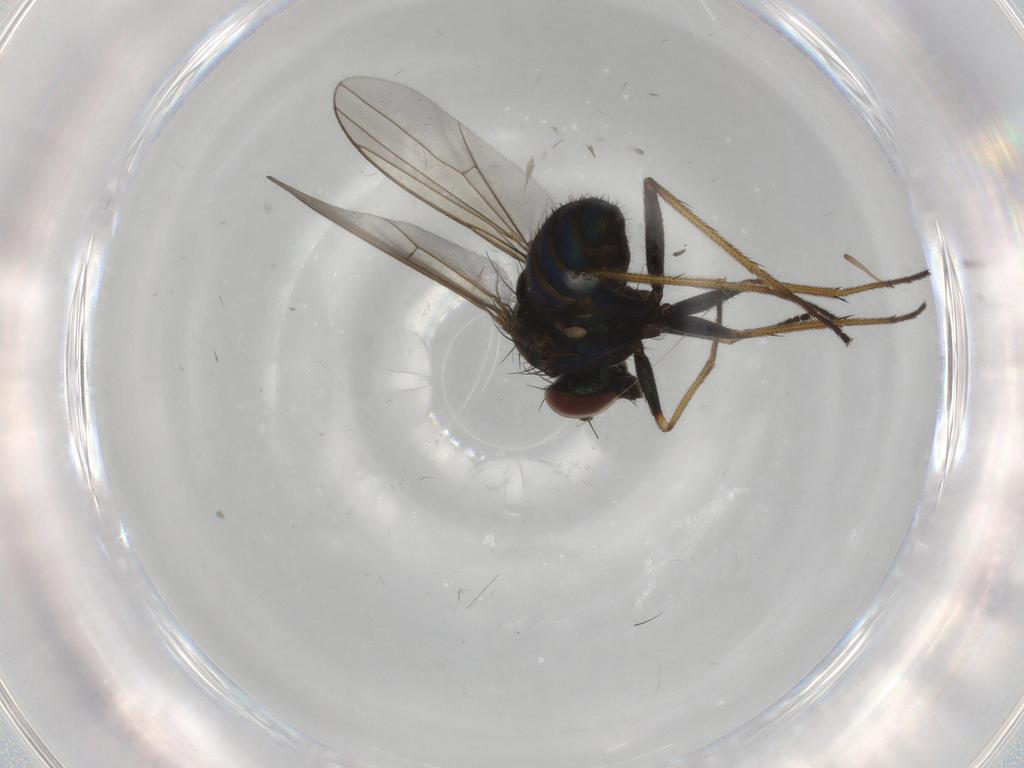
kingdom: Animalia
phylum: Arthropoda
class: Insecta
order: Diptera
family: Dolichopodidae
